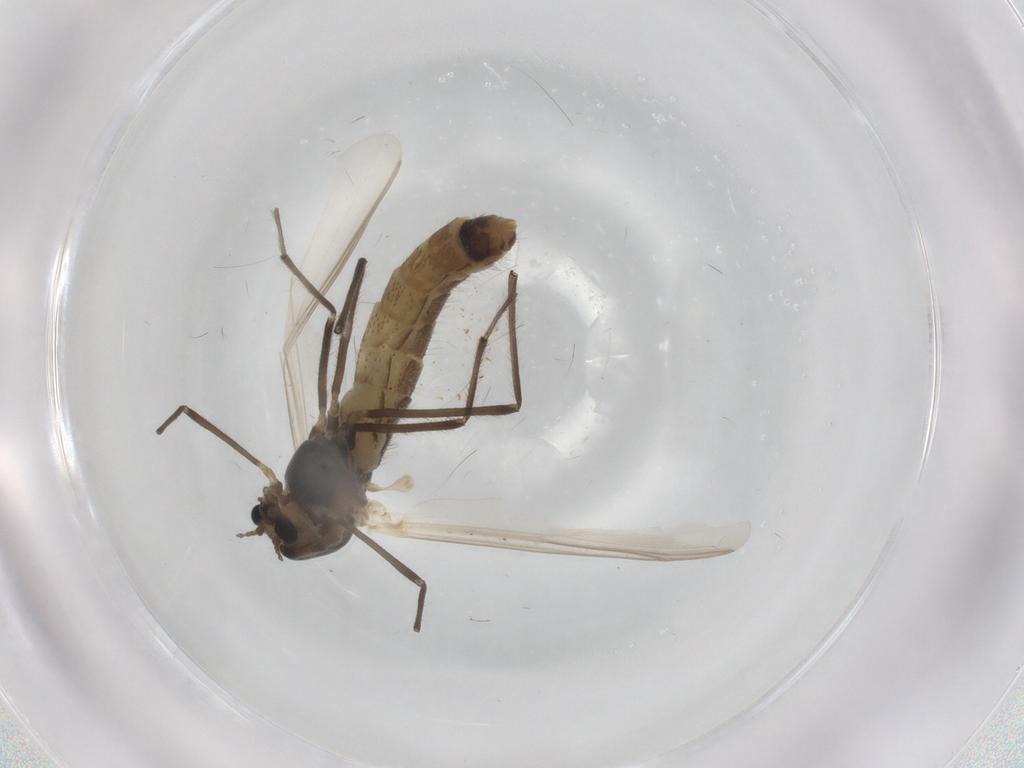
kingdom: Animalia
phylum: Arthropoda
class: Insecta
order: Diptera
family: Chironomidae
